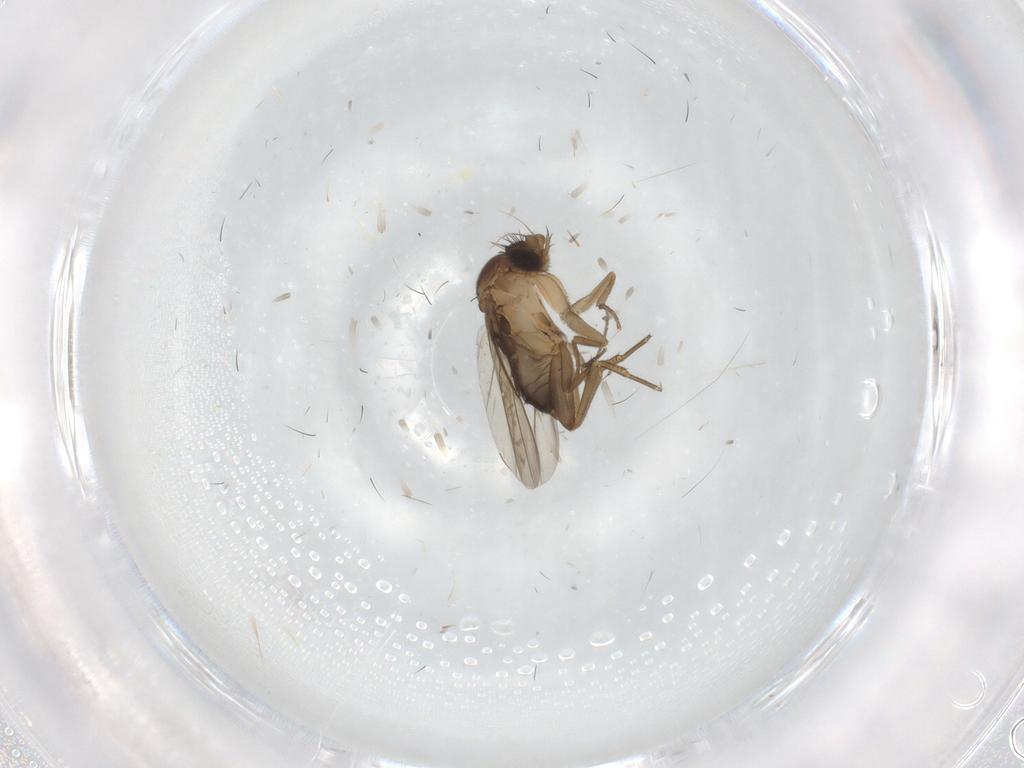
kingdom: Animalia
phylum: Arthropoda
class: Insecta
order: Diptera
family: Phoridae
